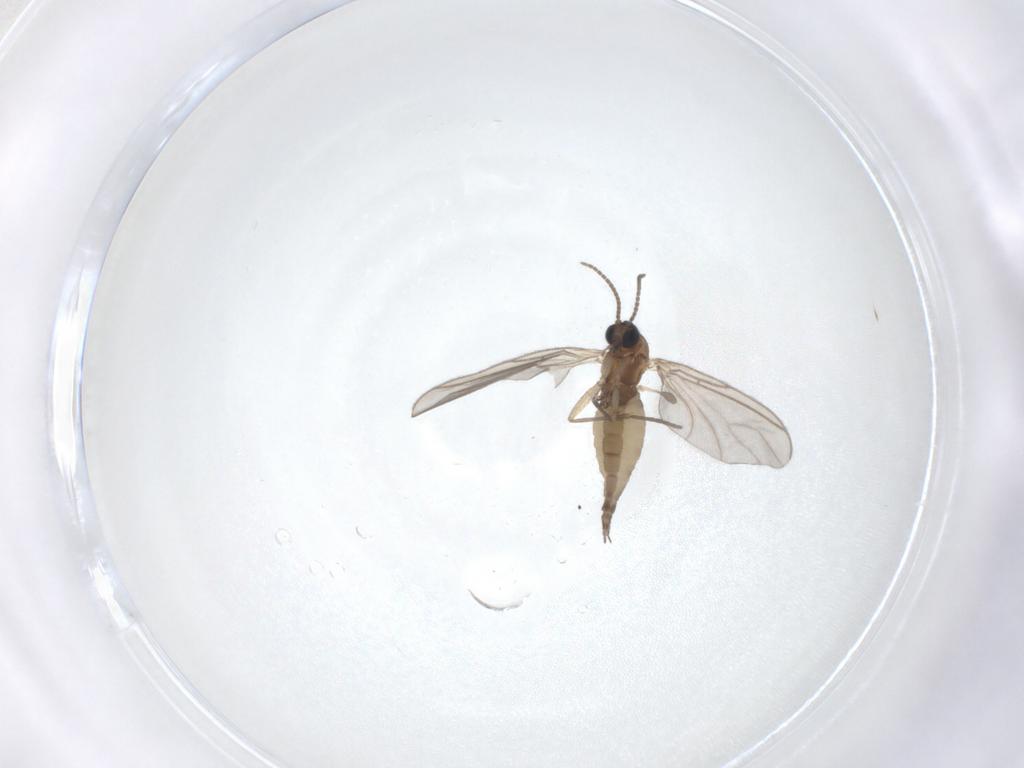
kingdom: Animalia
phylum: Arthropoda
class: Insecta
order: Diptera
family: Sciaridae
